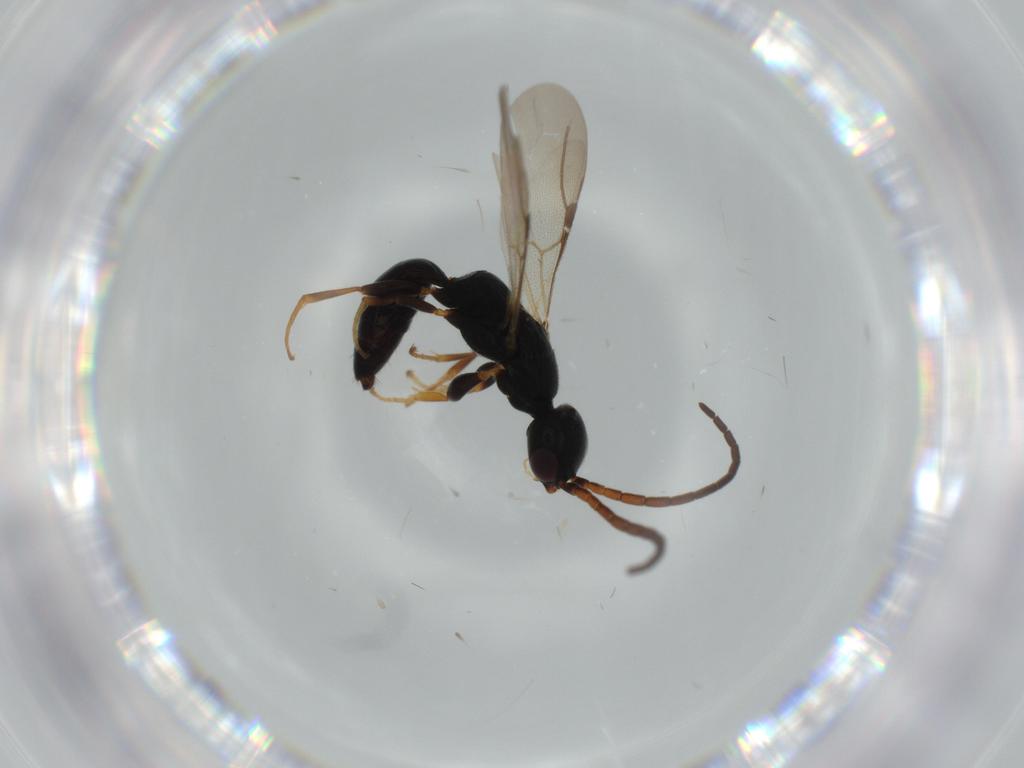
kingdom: Animalia
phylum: Arthropoda
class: Insecta
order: Hymenoptera
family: Bethylidae
